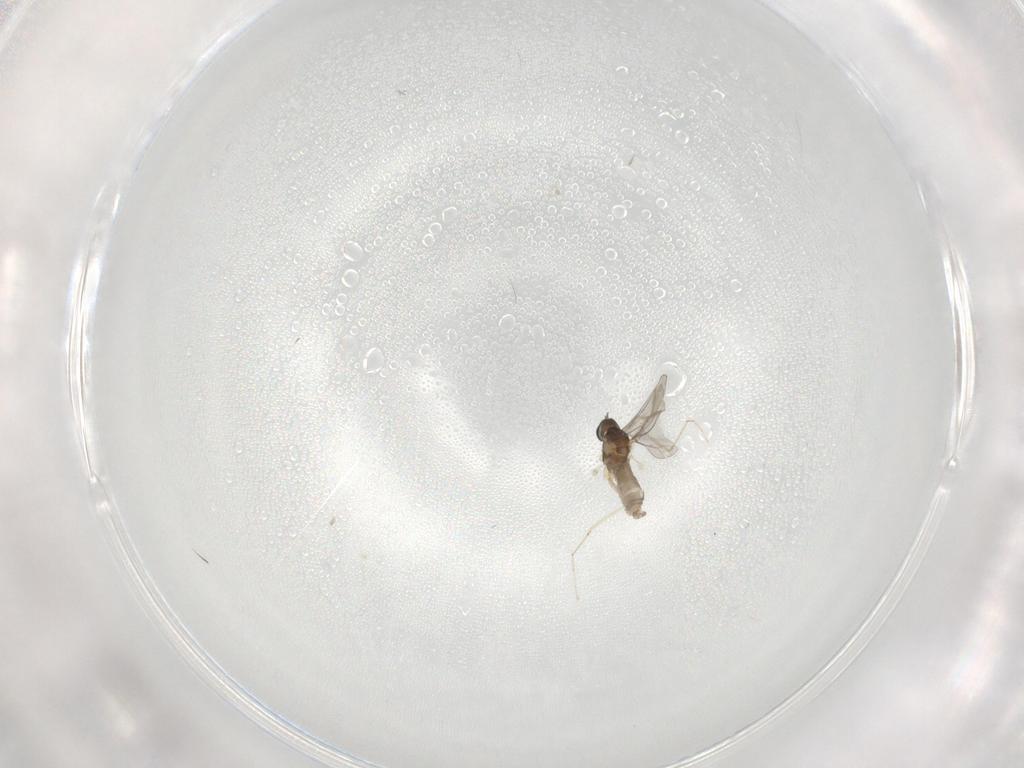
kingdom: Animalia
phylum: Arthropoda
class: Insecta
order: Diptera
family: Cecidomyiidae
